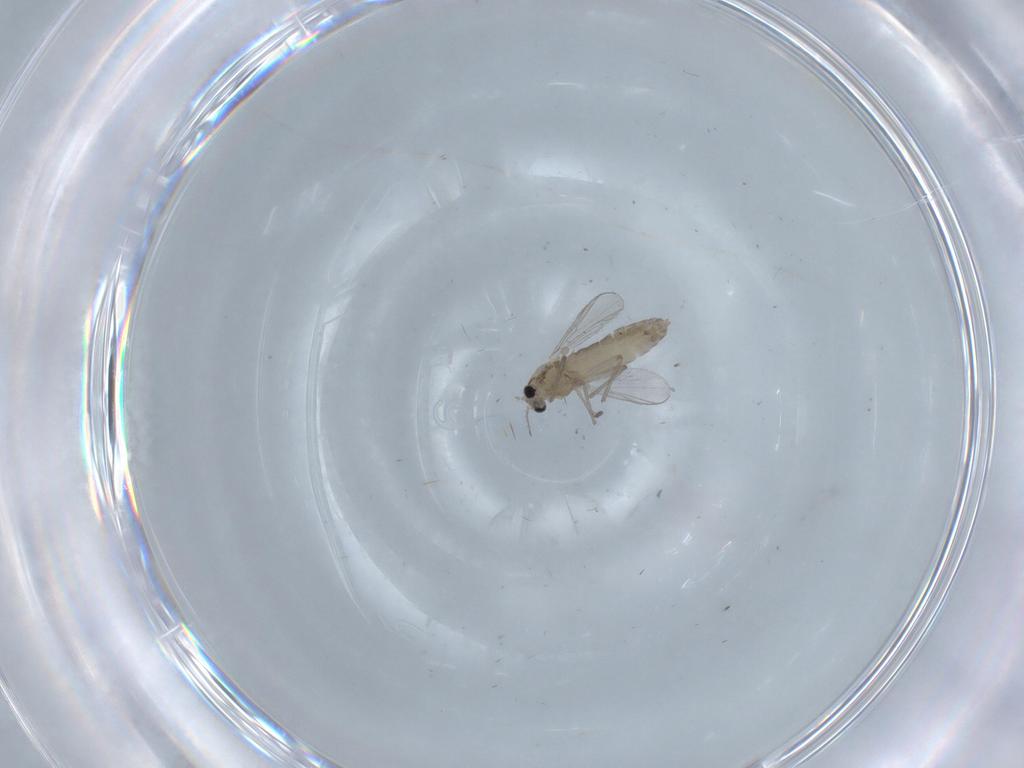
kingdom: Animalia
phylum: Arthropoda
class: Insecta
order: Diptera
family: Chironomidae
